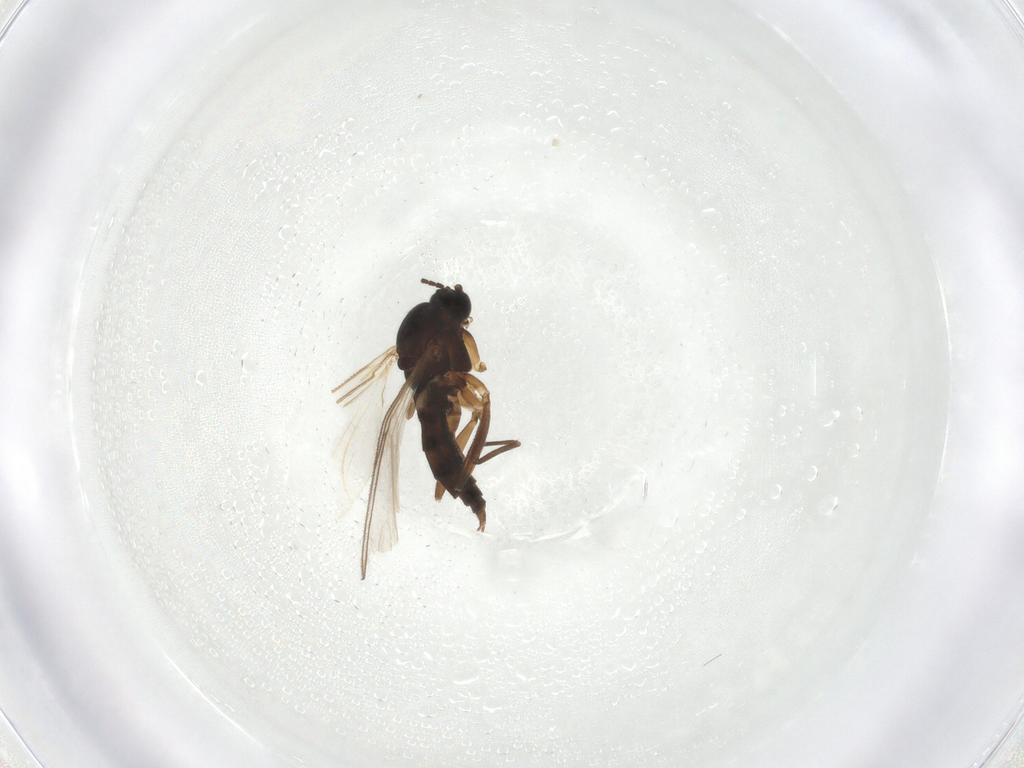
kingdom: Animalia
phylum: Arthropoda
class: Insecta
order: Diptera
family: Sciaridae
